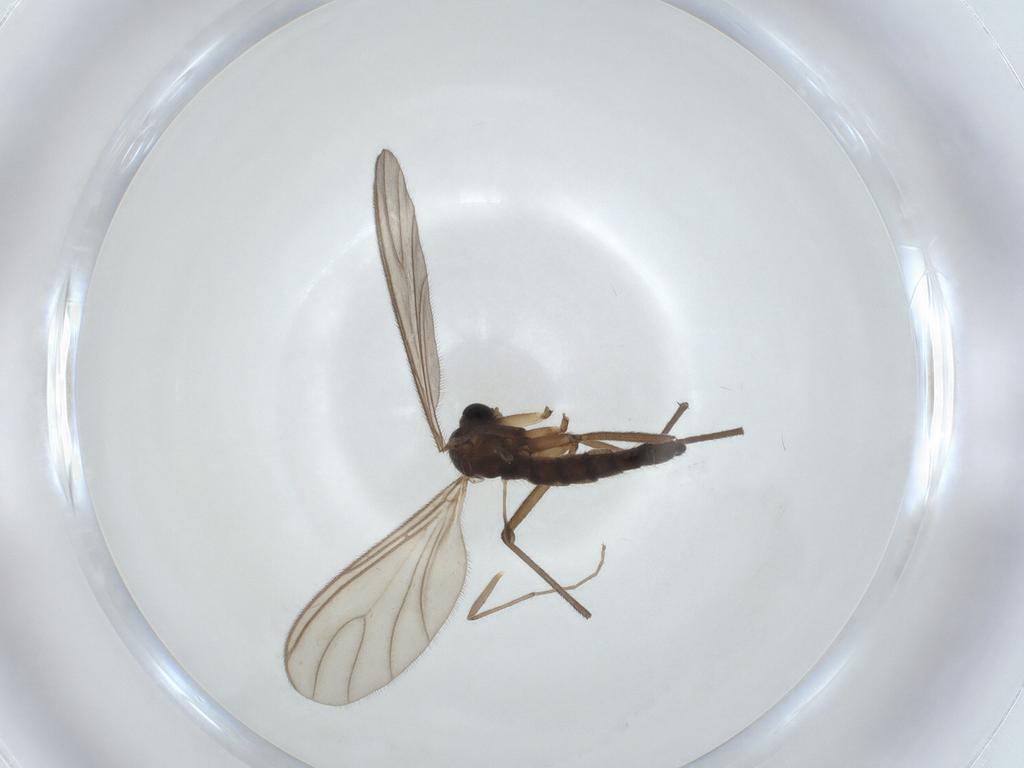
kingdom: Animalia
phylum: Arthropoda
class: Insecta
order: Diptera
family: Sciaridae
